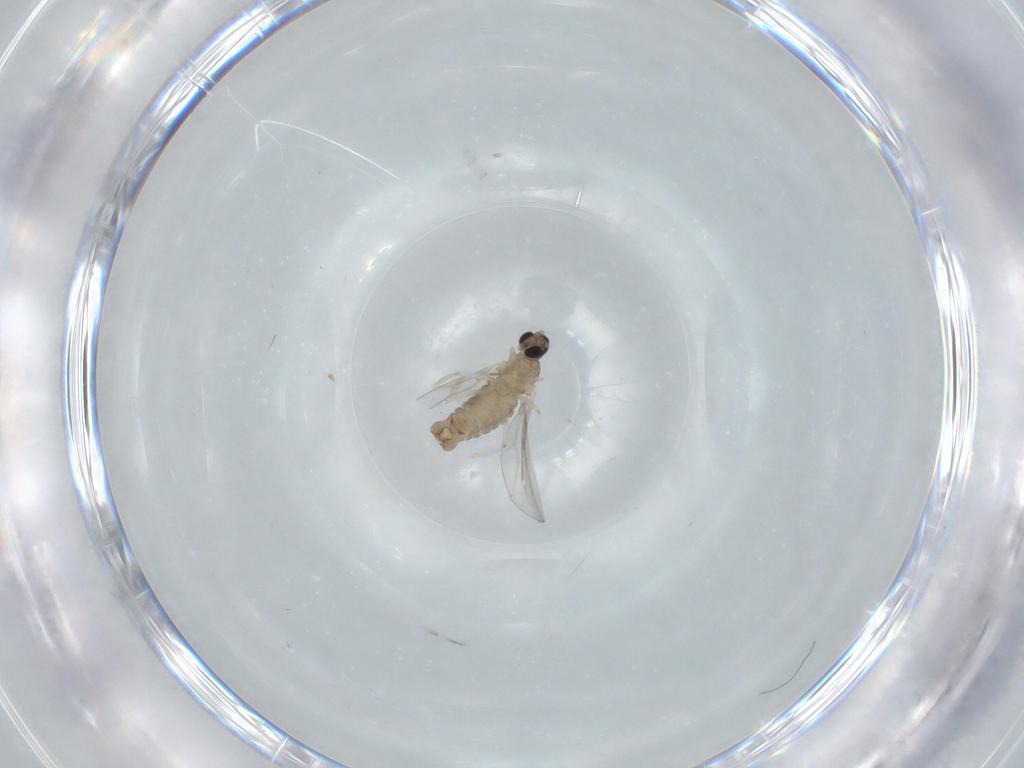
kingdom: Animalia
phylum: Arthropoda
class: Insecta
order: Diptera
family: Cecidomyiidae
